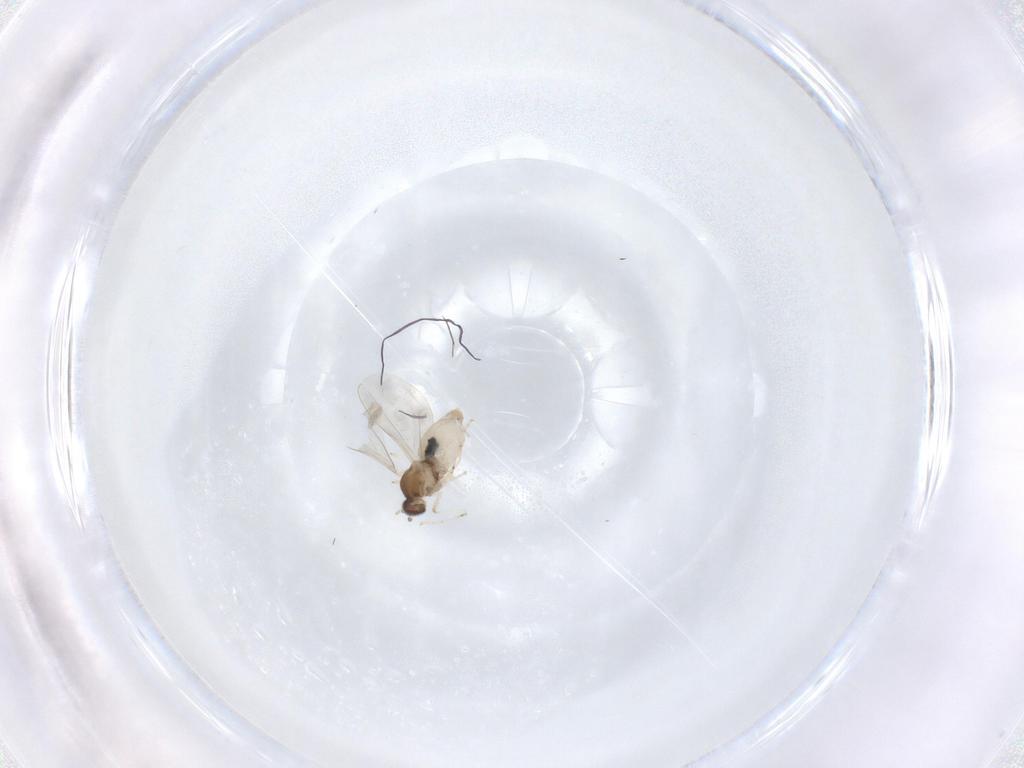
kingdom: Animalia
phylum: Arthropoda
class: Insecta
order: Diptera
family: Cecidomyiidae
